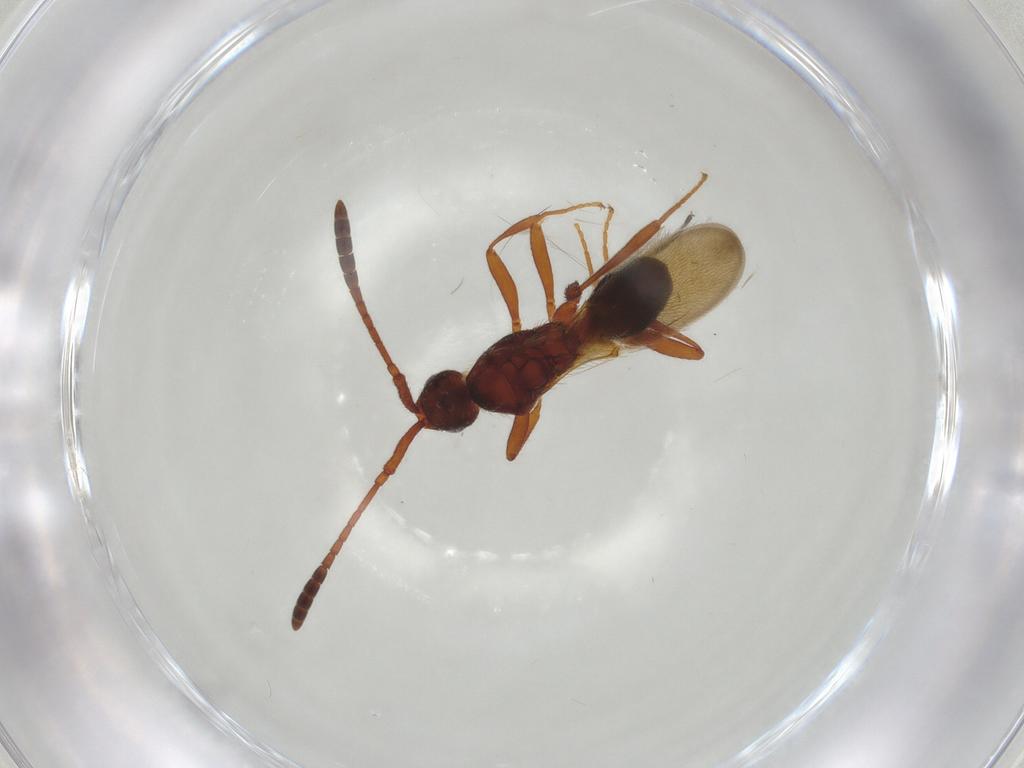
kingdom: Animalia
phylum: Arthropoda
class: Insecta
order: Hymenoptera
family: Diapriidae
